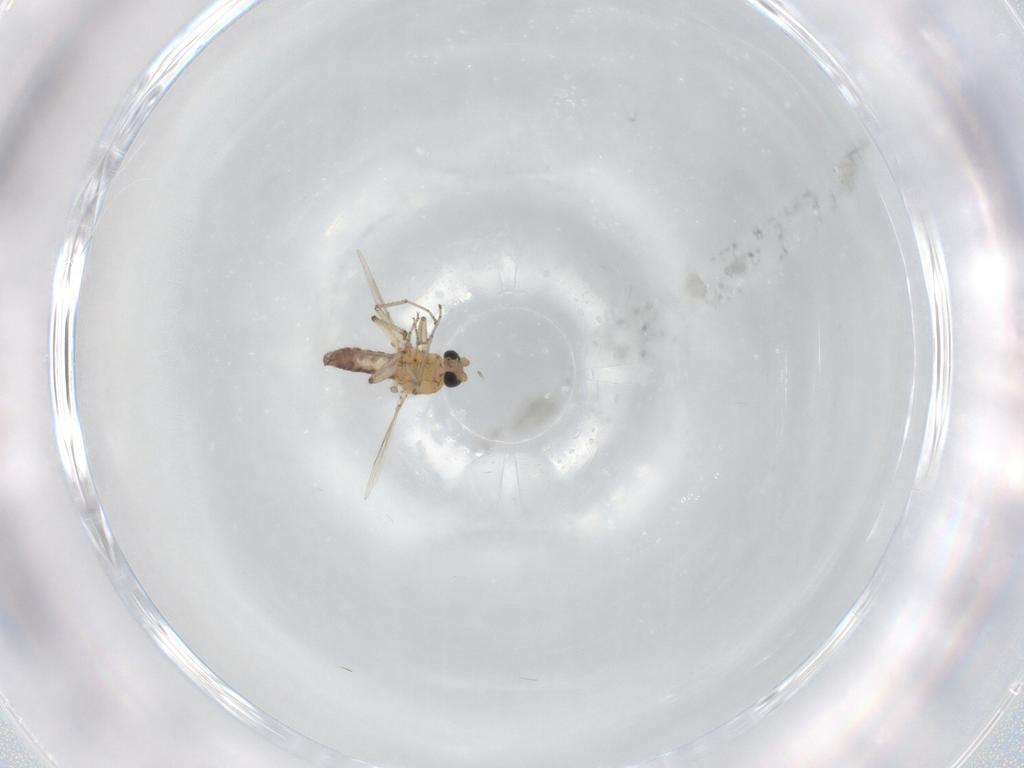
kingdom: Animalia
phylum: Arthropoda
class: Insecta
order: Diptera
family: Ceratopogonidae
